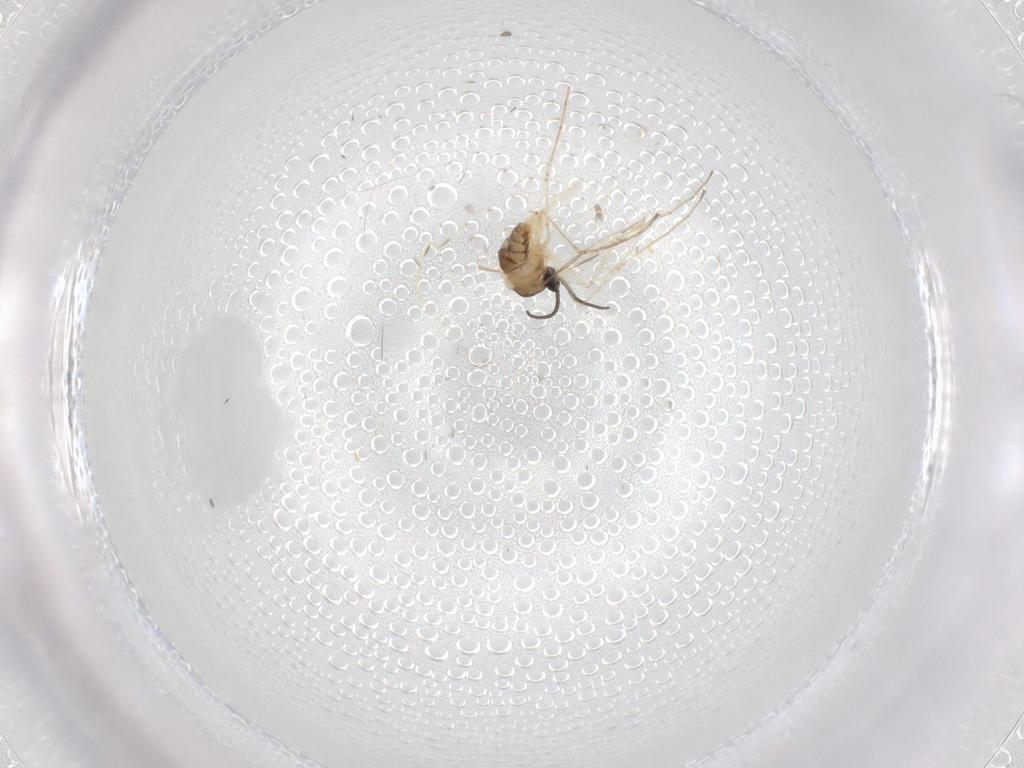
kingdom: Animalia
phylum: Arthropoda
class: Insecta
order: Diptera
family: Cecidomyiidae
